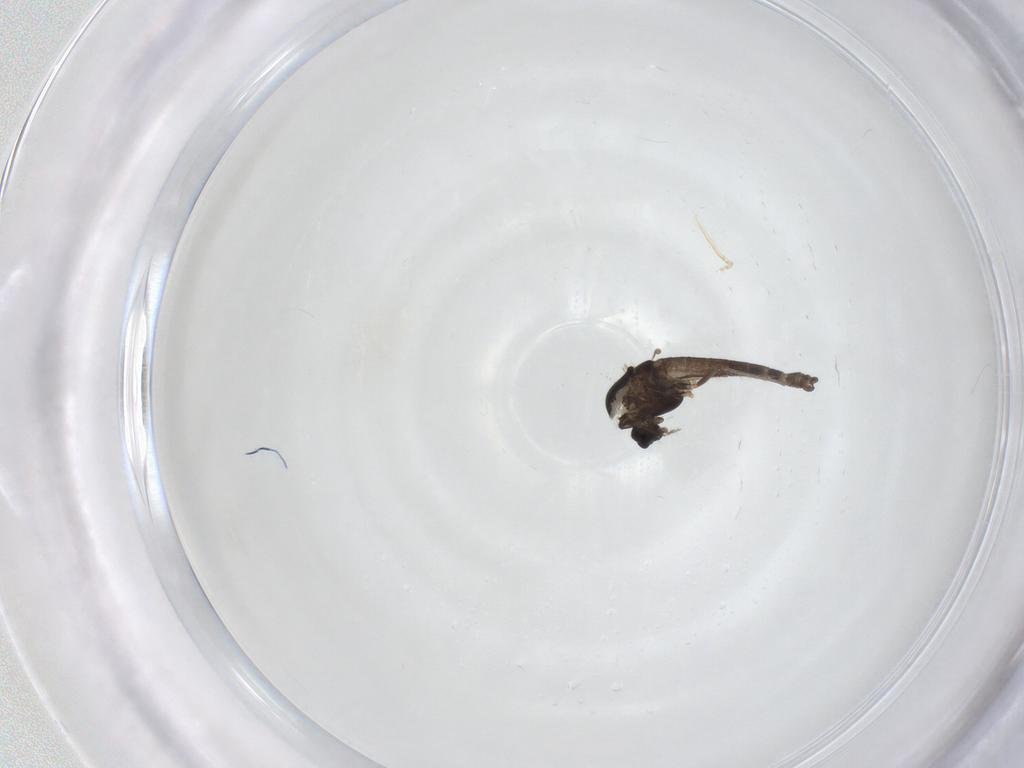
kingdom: Animalia
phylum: Arthropoda
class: Insecta
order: Diptera
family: Chironomidae
